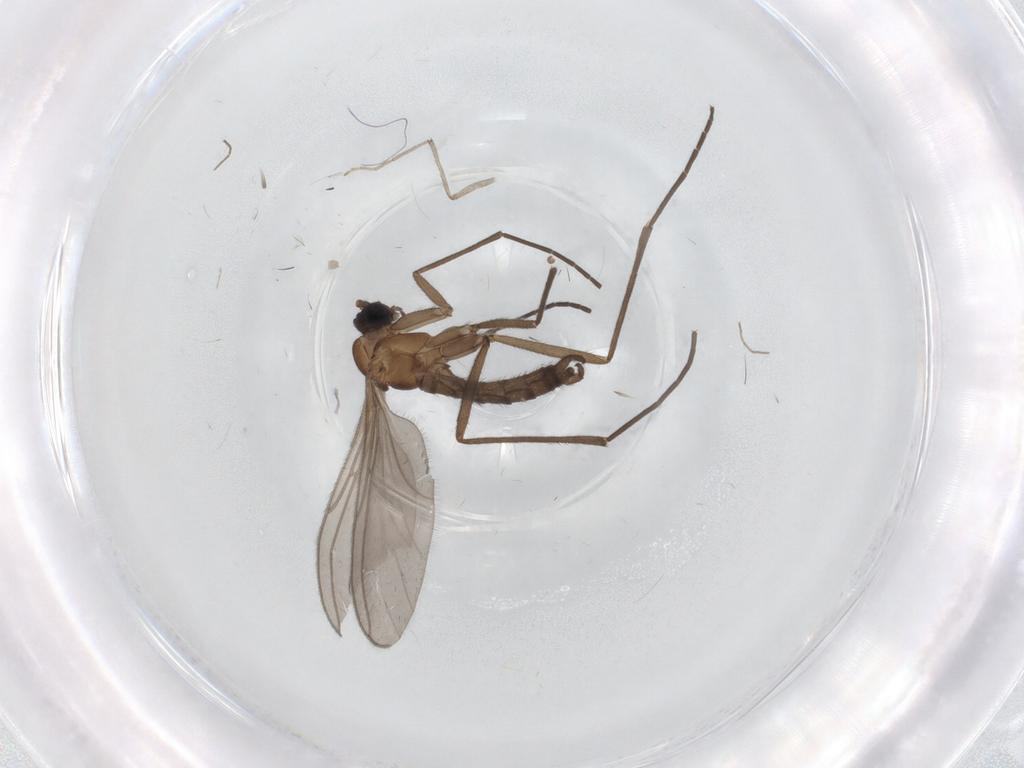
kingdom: Animalia
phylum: Arthropoda
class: Insecta
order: Diptera
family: Sciaridae
